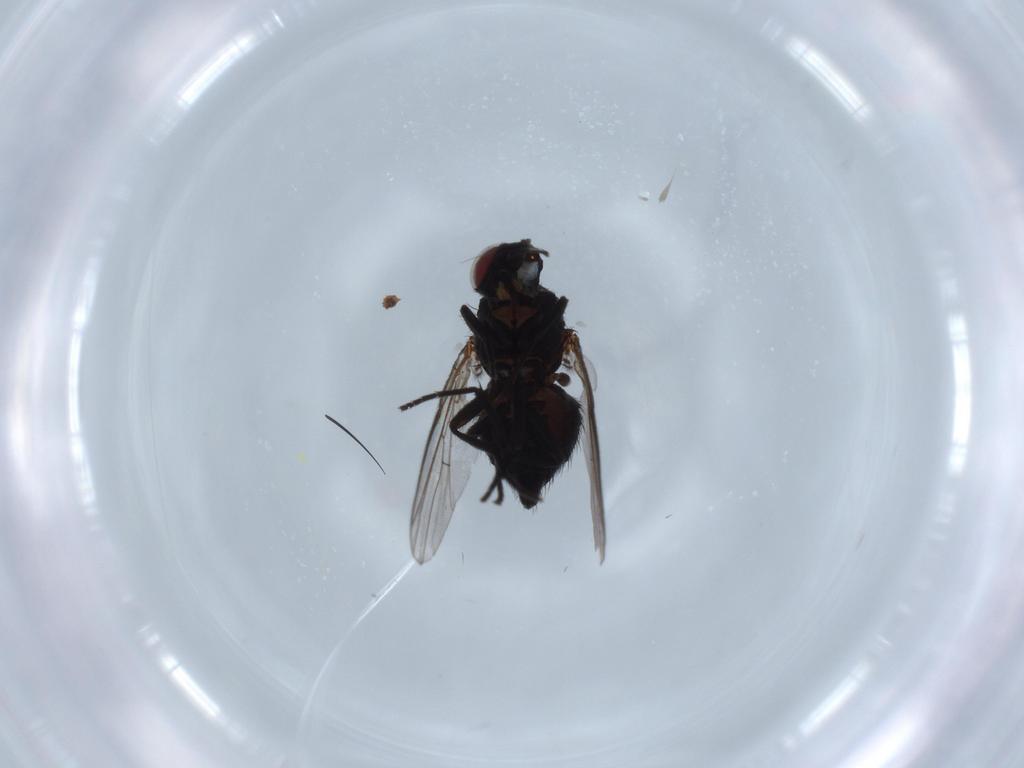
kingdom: Animalia
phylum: Arthropoda
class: Insecta
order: Diptera
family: Agromyzidae
